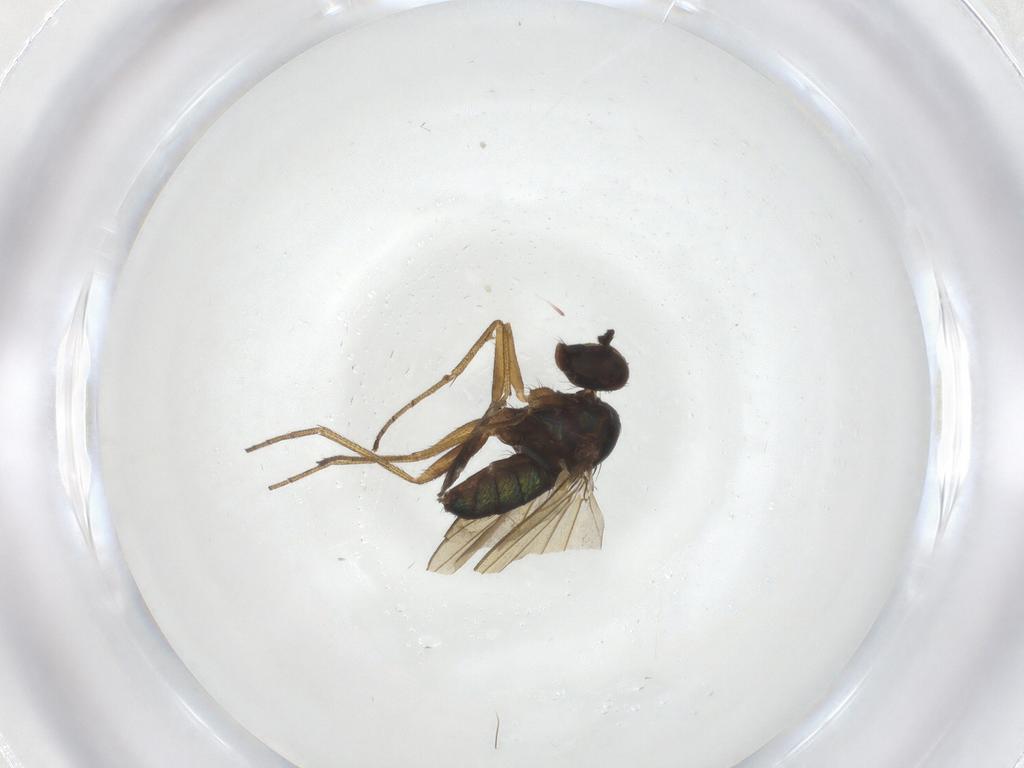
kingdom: Animalia
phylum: Arthropoda
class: Insecta
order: Diptera
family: Dolichopodidae
